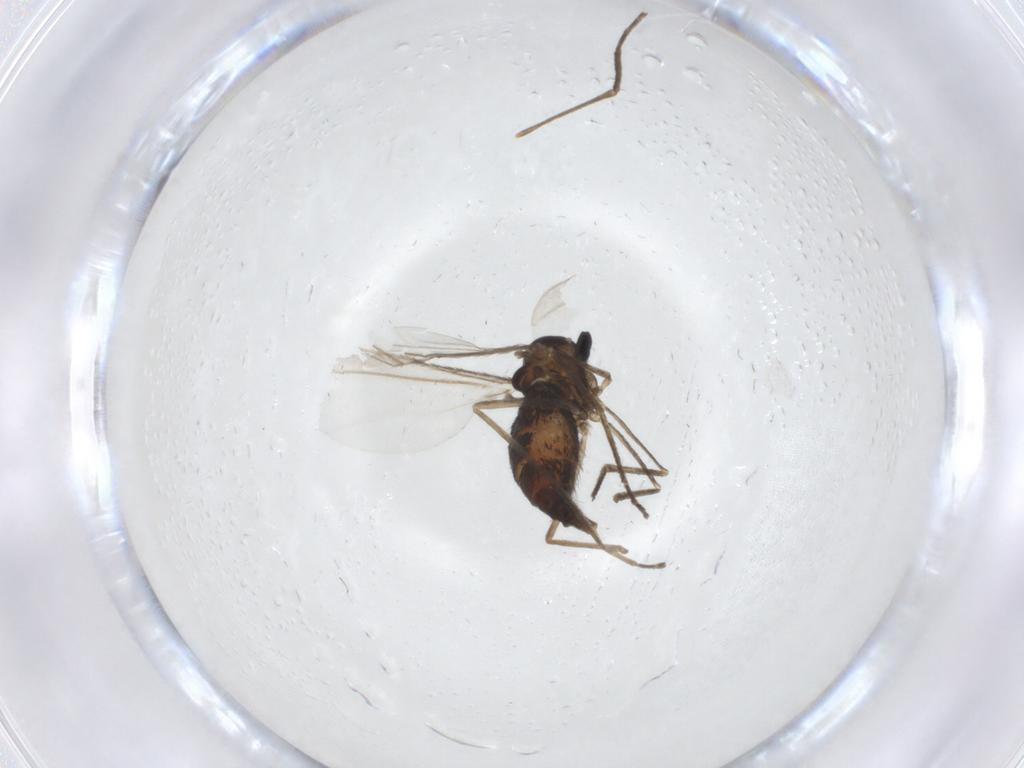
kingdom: Animalia
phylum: Arthropoda
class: Insecta
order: Diptera
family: Cecidomyiidae
